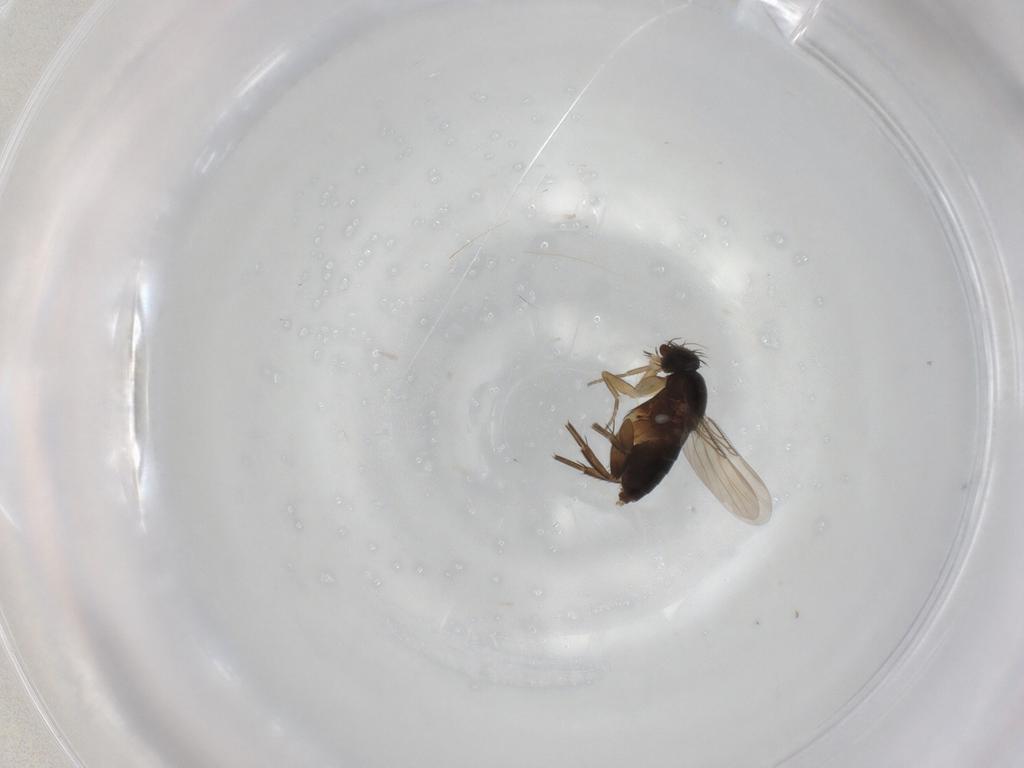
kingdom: Animalia
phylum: Arthropoda
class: Insecta
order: Diptera
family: Phoridae
